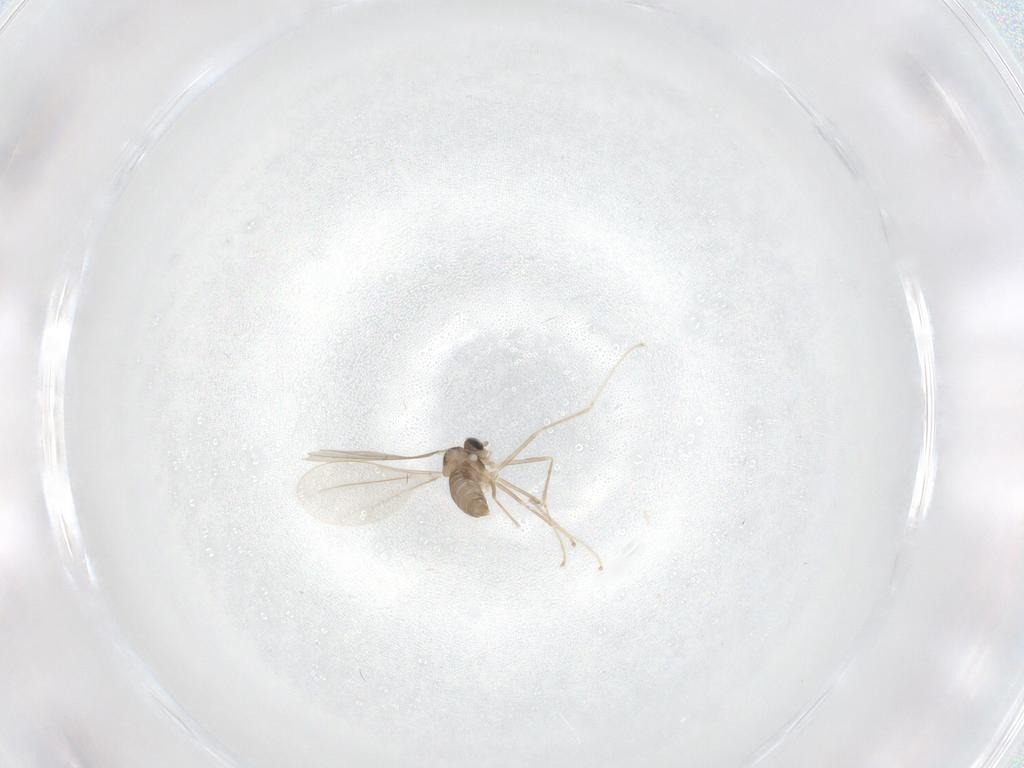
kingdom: Animalia
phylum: Arthropoda
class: Insecta
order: Diptera
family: Cecidomyiidae
